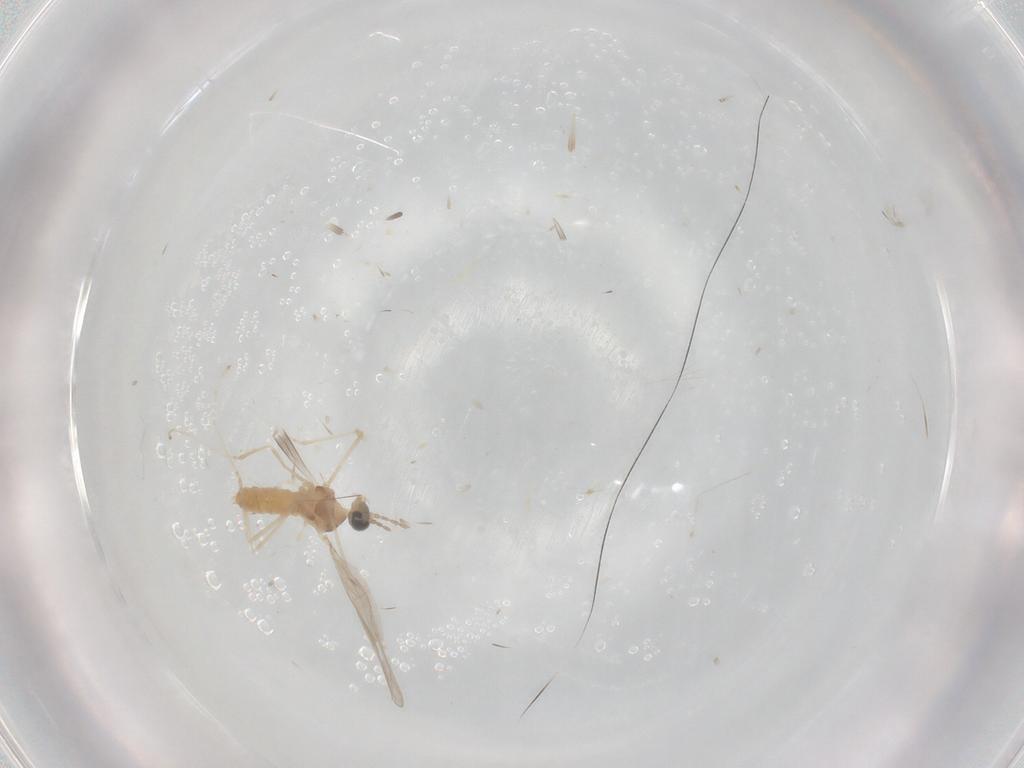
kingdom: Animalia
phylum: Arthropoda
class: Insecta
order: Diptera
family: Cecidomyiidae
